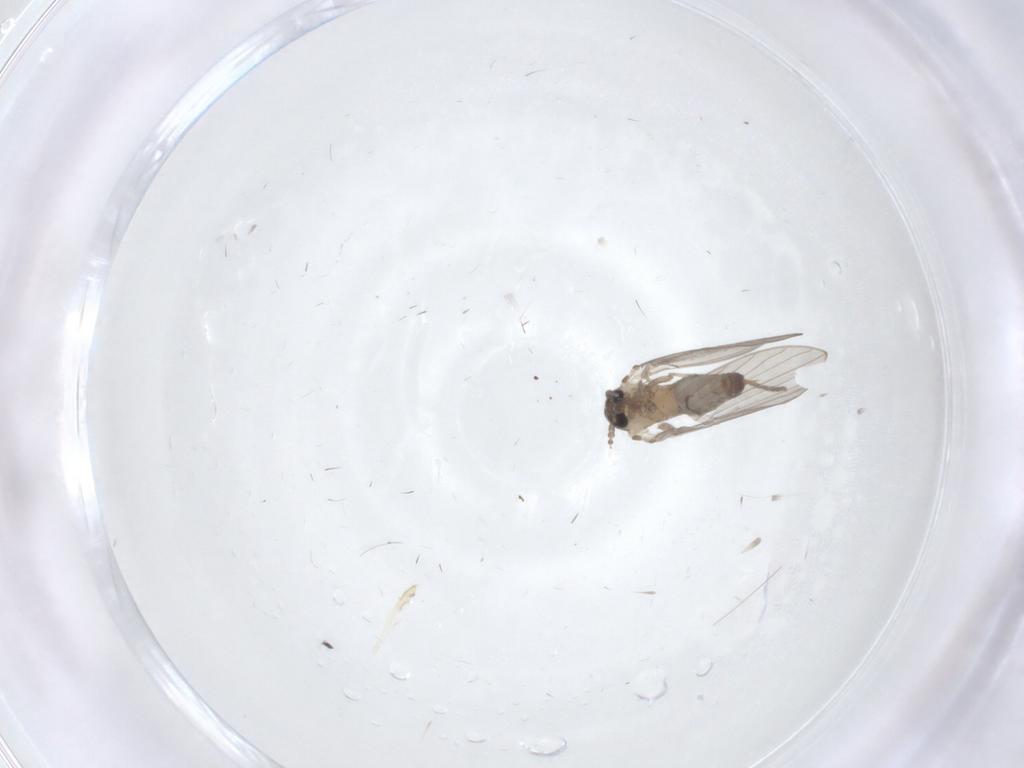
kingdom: Animalia
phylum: Arthropoda
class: Insecta
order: Diptera
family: Psychodidae
